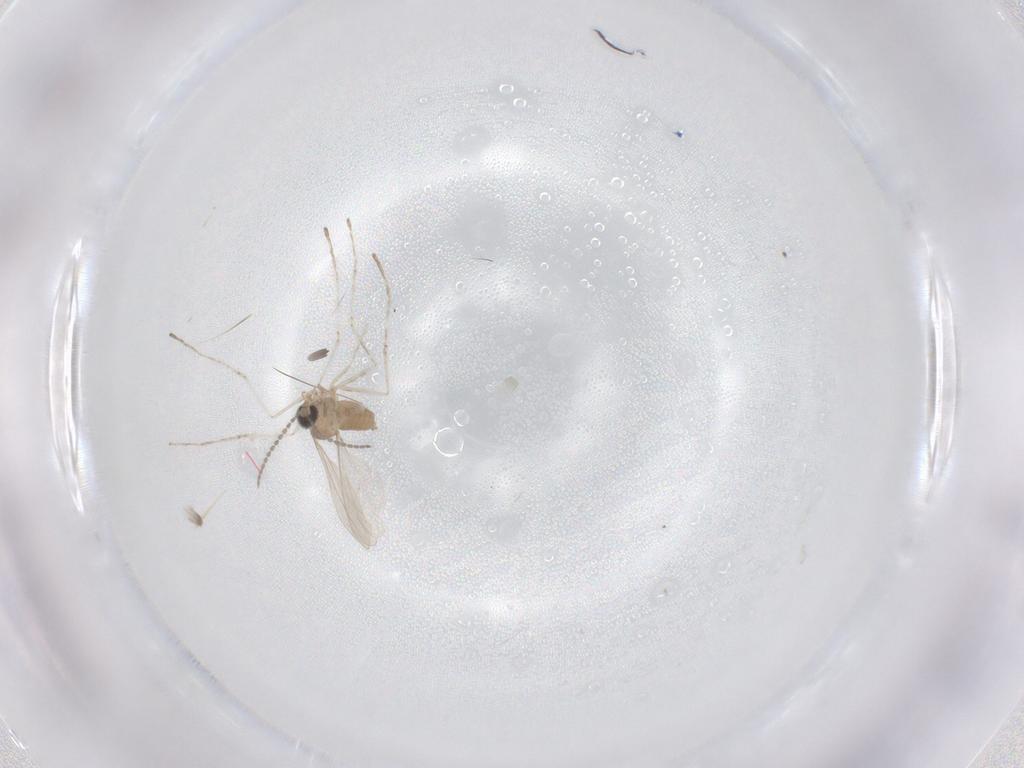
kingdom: Animalia
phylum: Arthropoda
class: Insecta
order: Diptera
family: Cecidomyiidae
